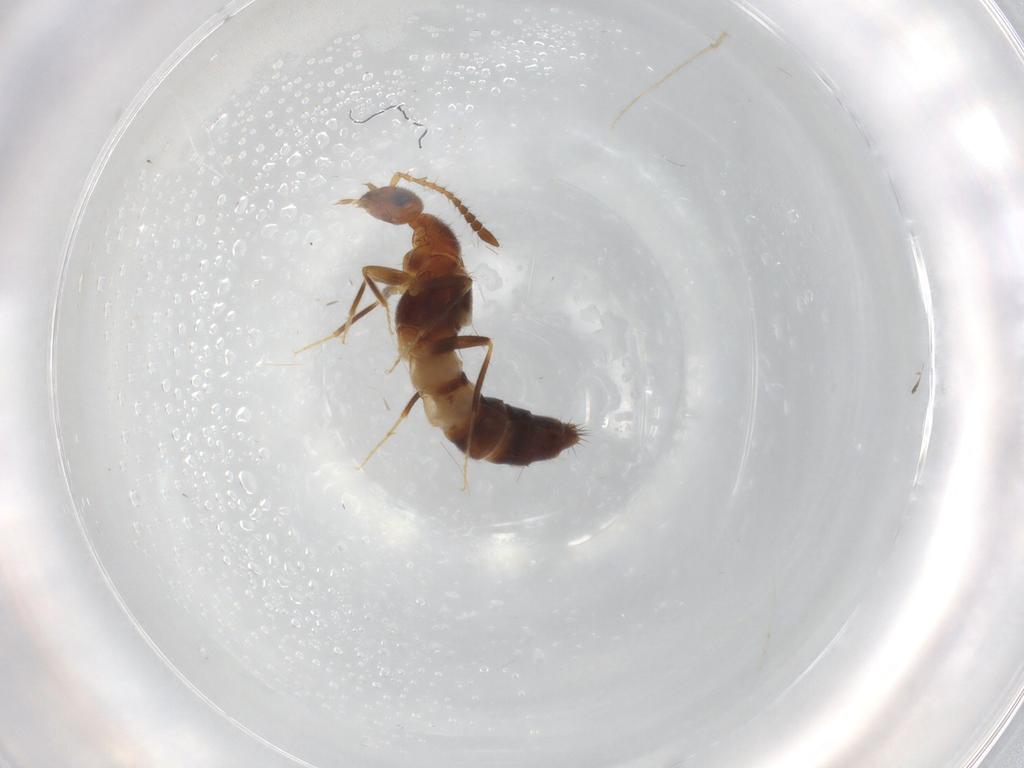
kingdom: Animalia
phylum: Arthropoda
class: Insecta
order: Coleoptera
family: Staphylinidae
